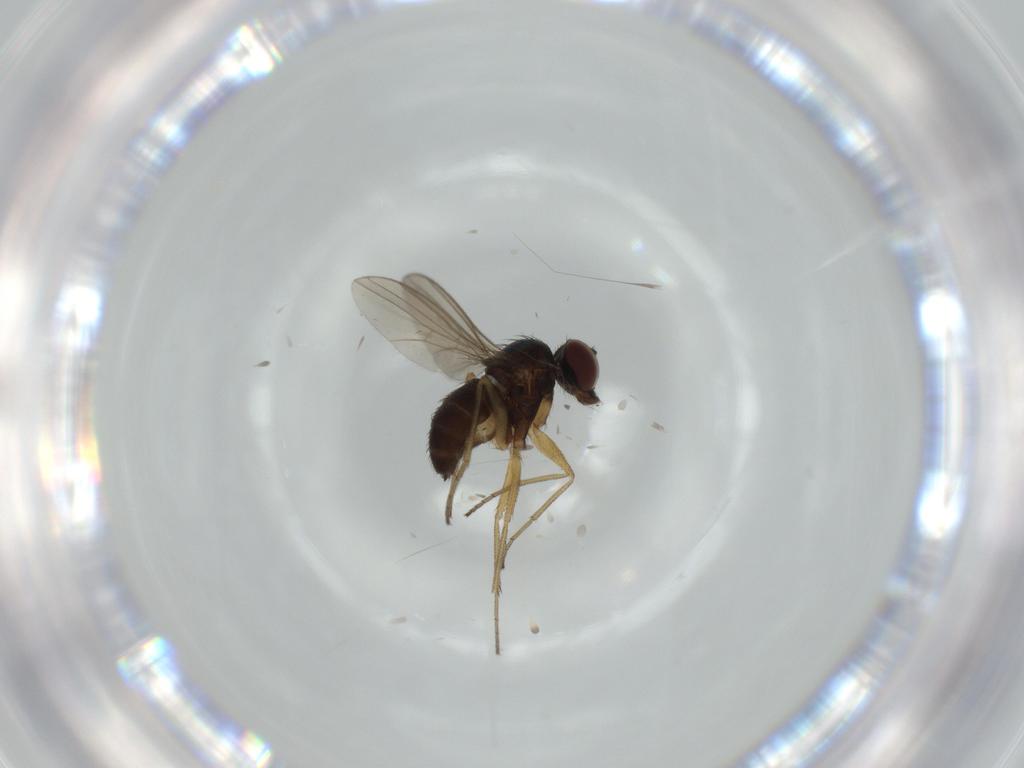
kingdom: Animalia
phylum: Arthropoda
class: Insecta
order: Diptera
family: Dolichopodidae
